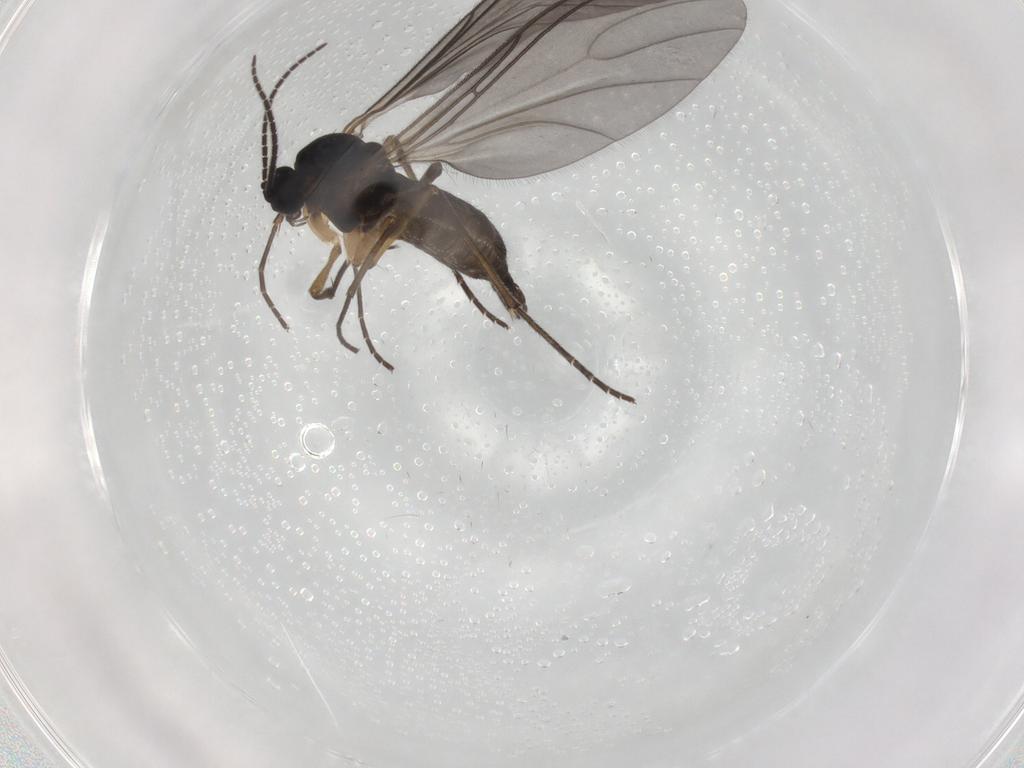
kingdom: Animalia
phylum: Arthropoda
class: Insecta
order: Diptera
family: Sciaridae
